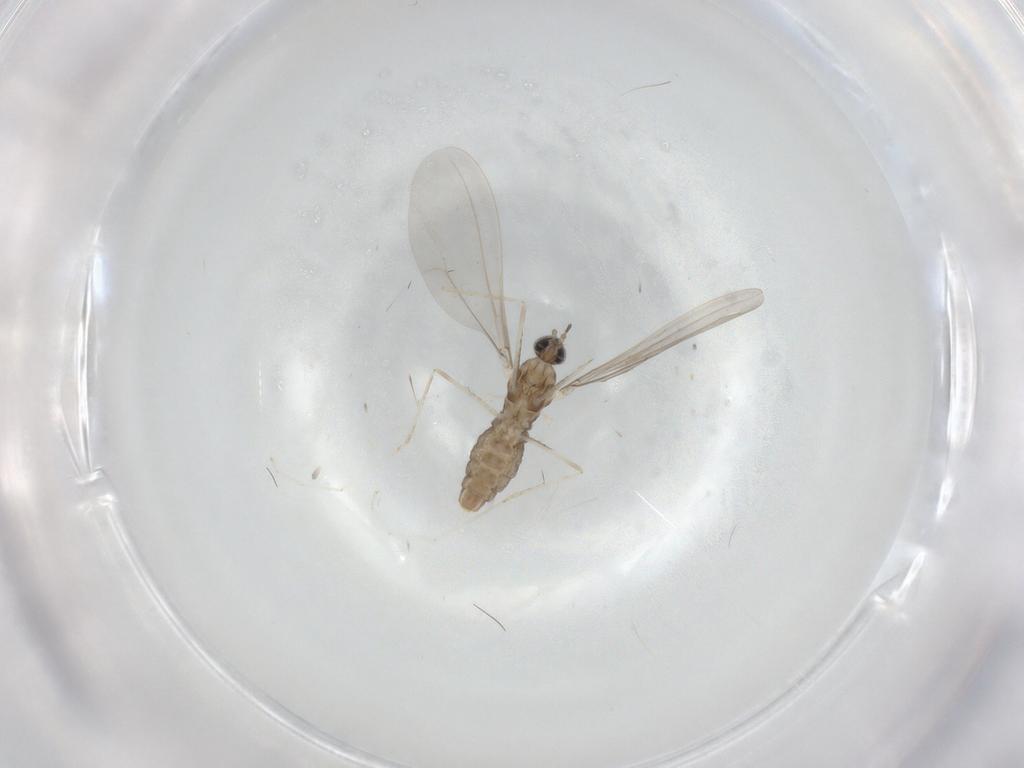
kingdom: Animalia
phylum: Arthropoda
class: Insecta
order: Diptera
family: Cecidomyiidae
